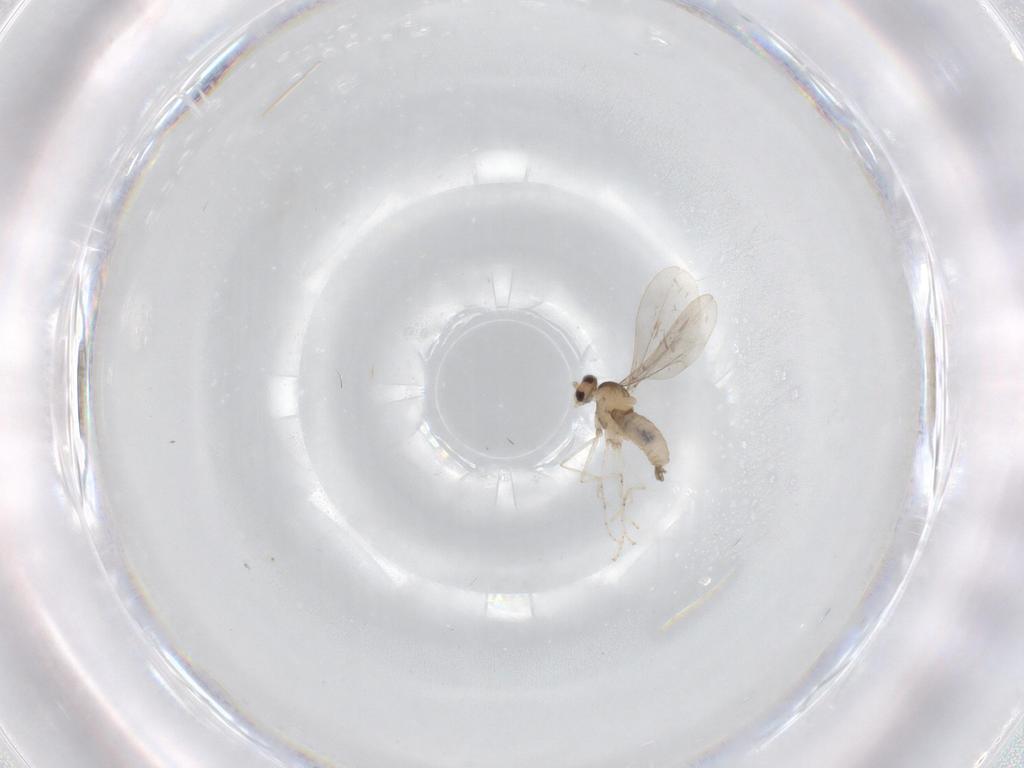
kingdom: Animalia
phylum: Arthropoda
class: Insecta
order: Diptera
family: Cecidomyiidae
